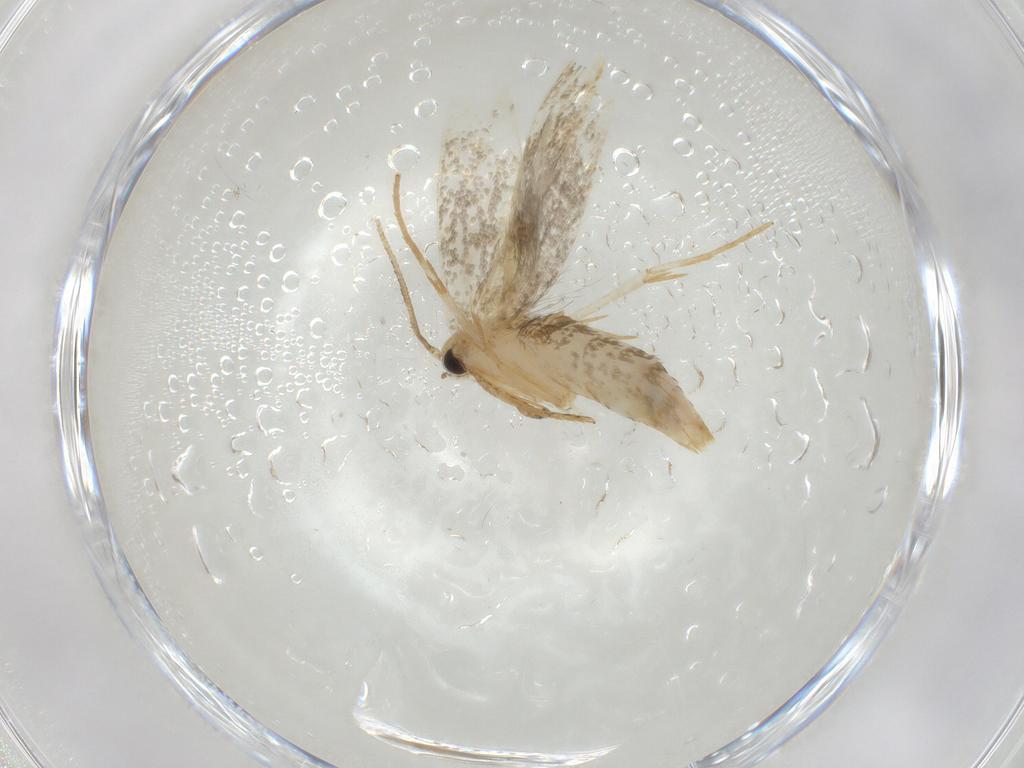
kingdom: Animalia
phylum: Arthropoda
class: Insecta
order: Lepidoptera
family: Tineidae
